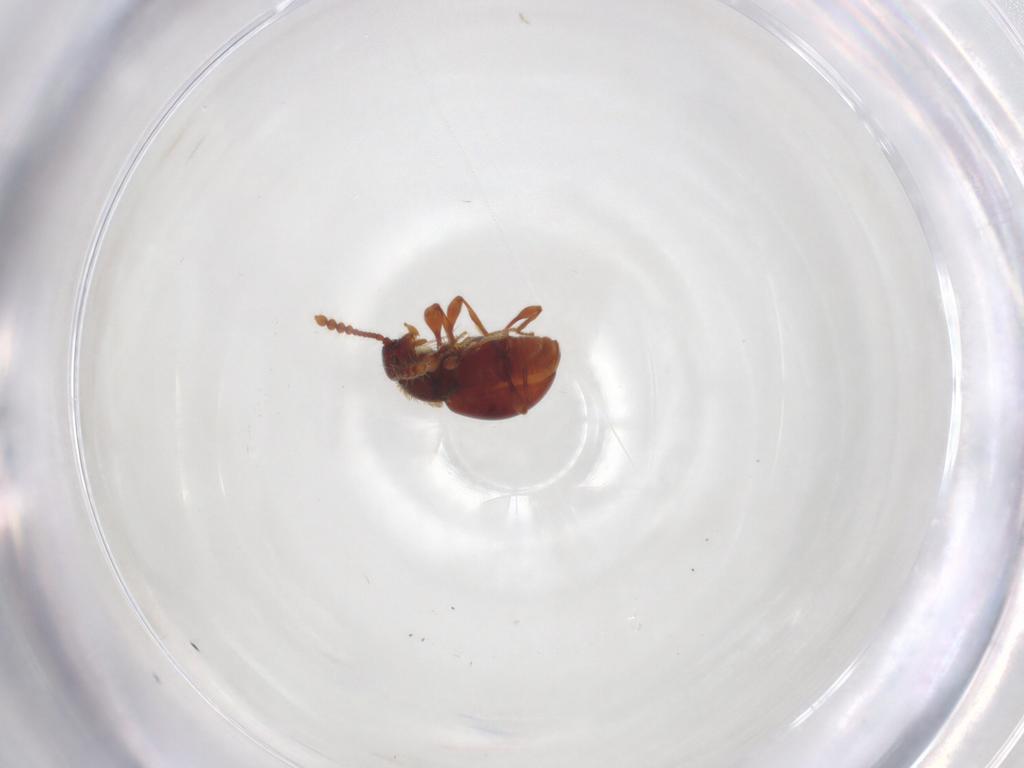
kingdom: Animalia
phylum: Arthropoda
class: Insecta
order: Coleoptera
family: Staphylinidae
